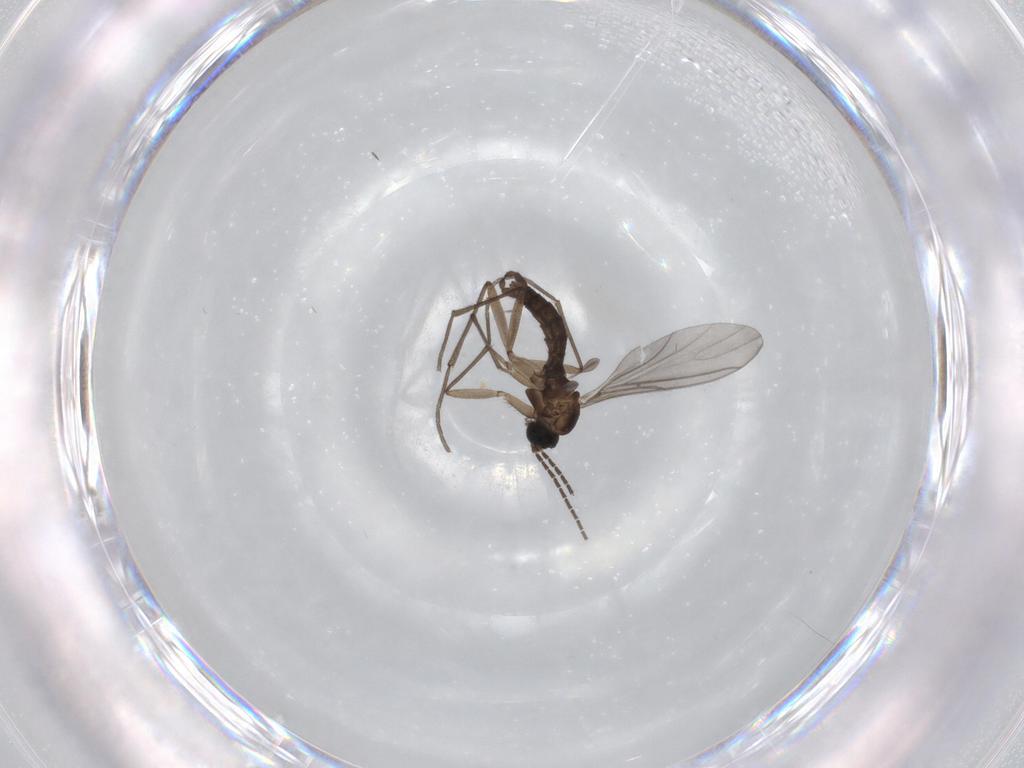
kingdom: Animalia
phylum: Arthropoda
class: Insecta
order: Diptera
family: Sciaridae
